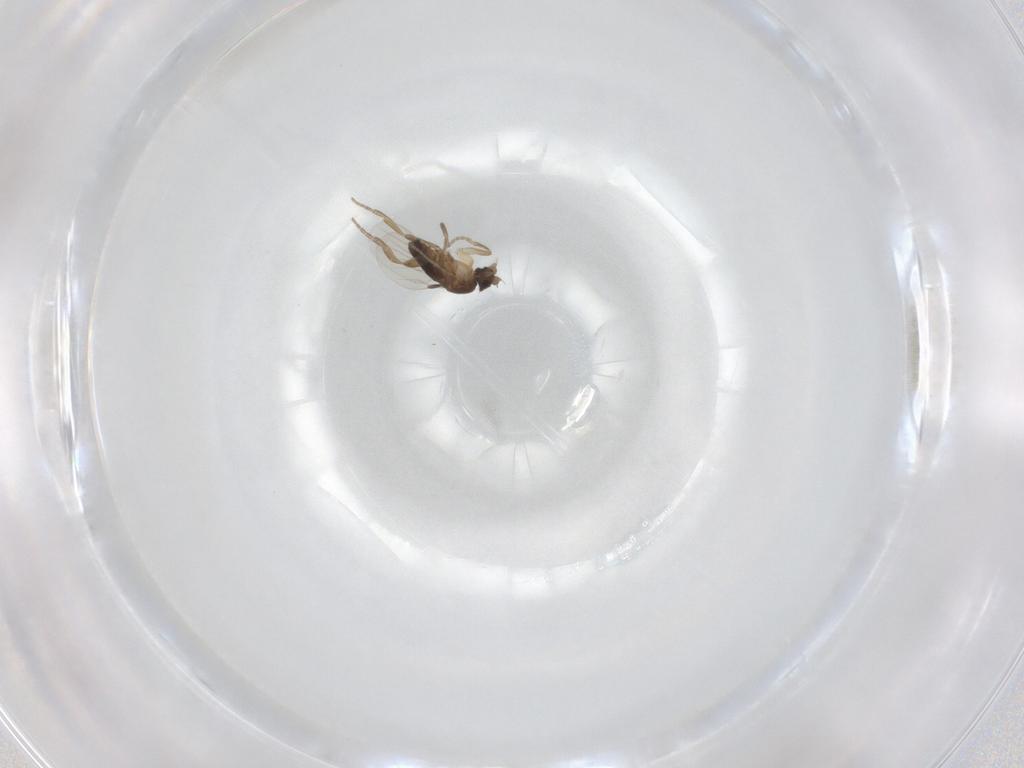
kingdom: Animalia
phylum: Arthropoda
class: Insecta
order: Diptera
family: Phoridae
